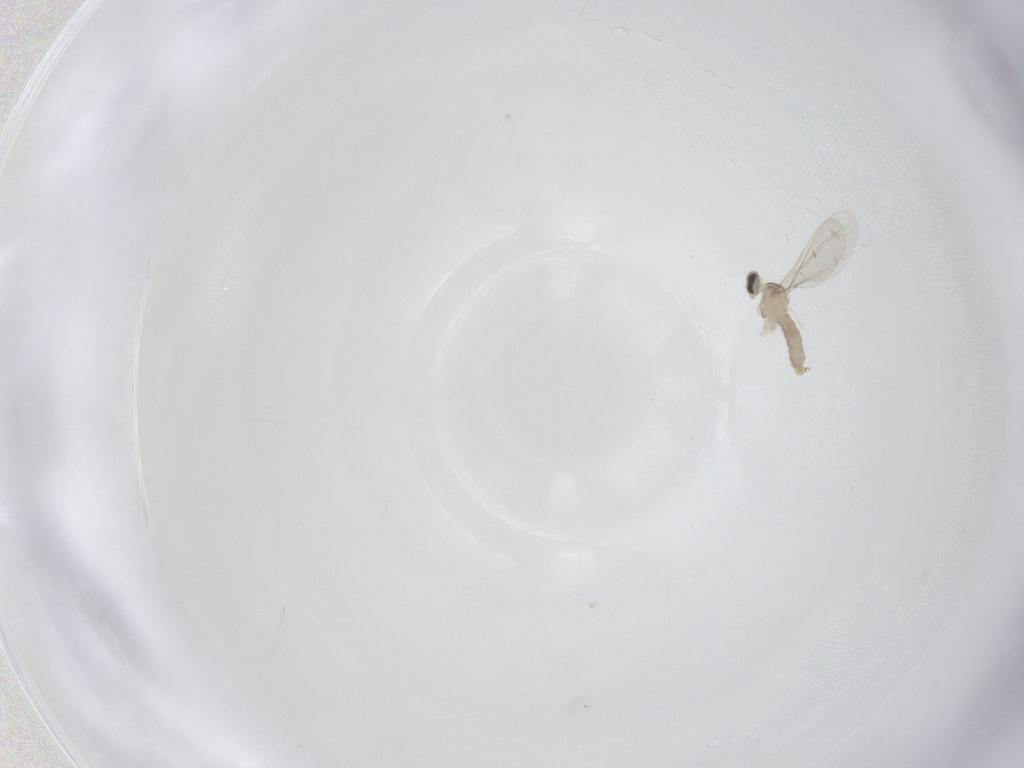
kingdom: Animalia
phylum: Arthropoda
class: Insecta
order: Diptera
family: Cecidomyiidae
